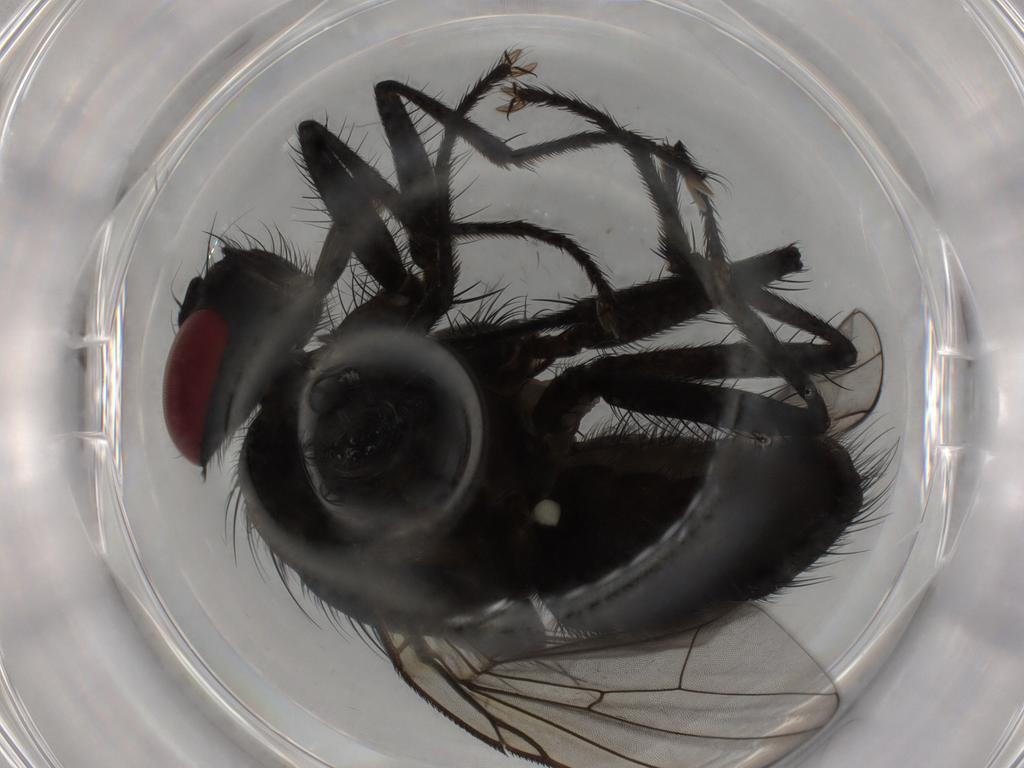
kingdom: Animalia
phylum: Arthropoda
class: Insecta
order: Diptera
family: Muscidae
